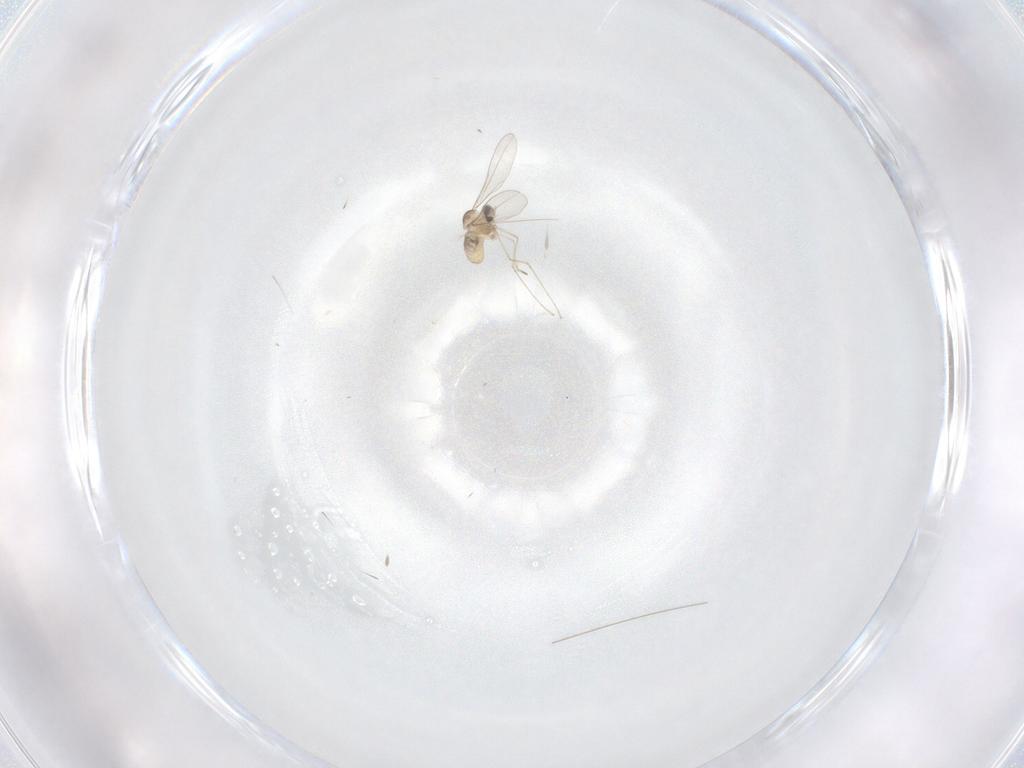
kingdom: Animalia
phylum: Arthropoda
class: Insecta
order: Diptera
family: Cecidomyiidae
